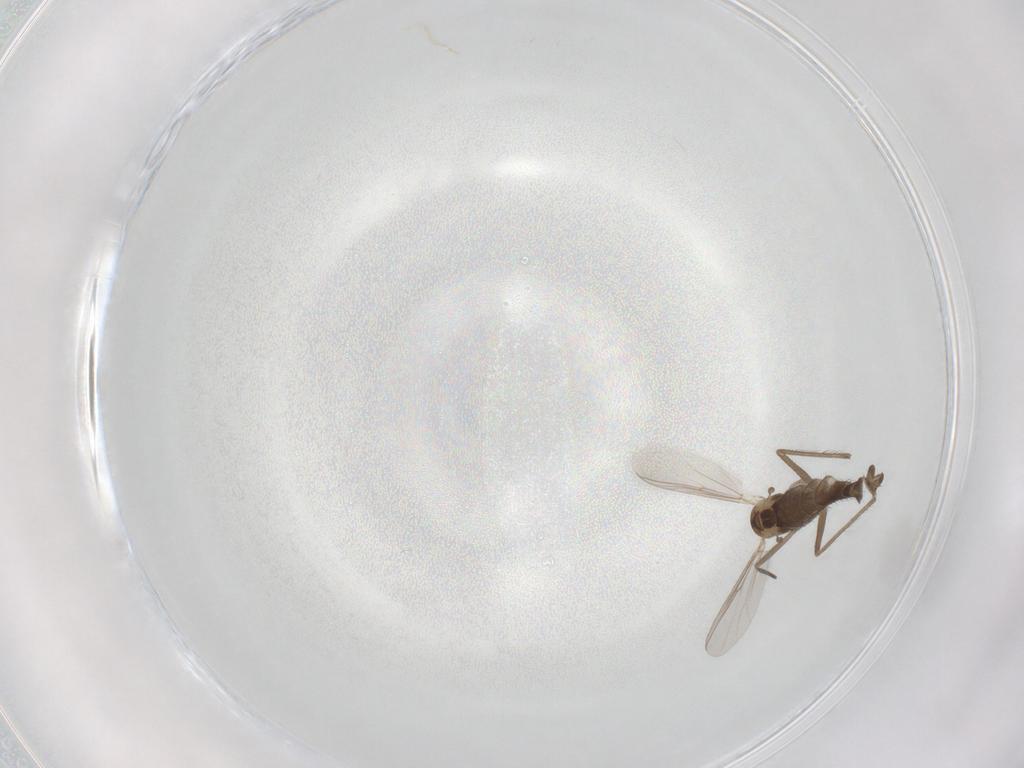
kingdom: Animalia
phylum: Arthropoda
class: Insecta
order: Diptera
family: Chironomidae
